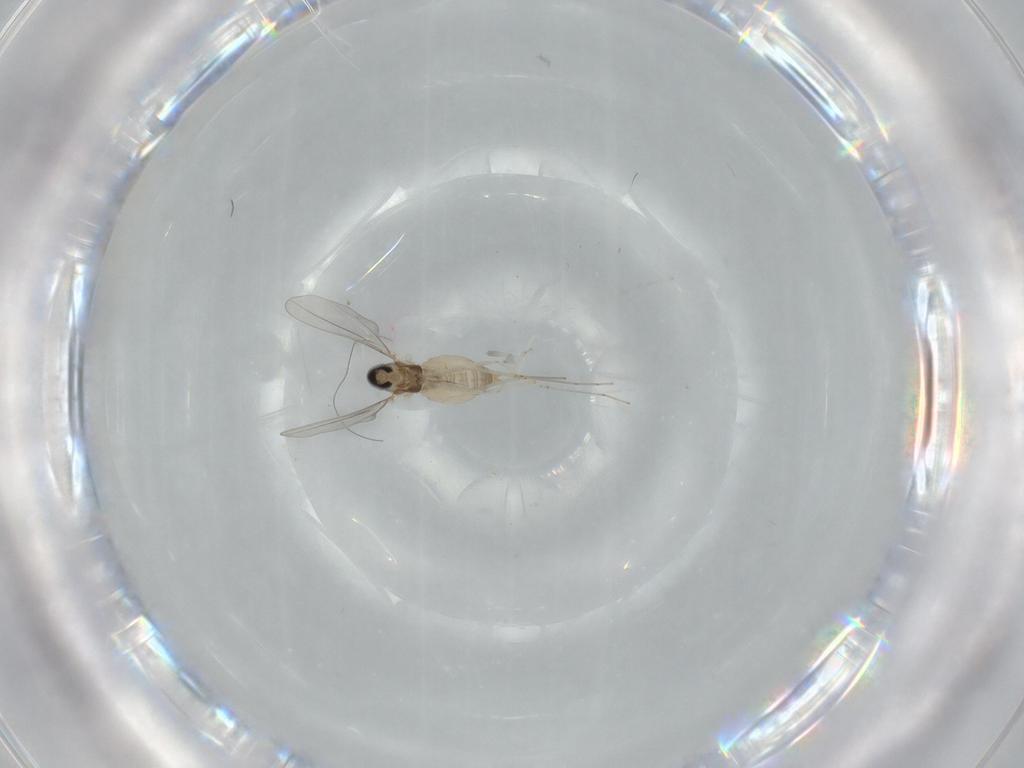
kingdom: Animalia
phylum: Arthropoda
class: Insecta
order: Diptera
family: Cecidomyiidae
